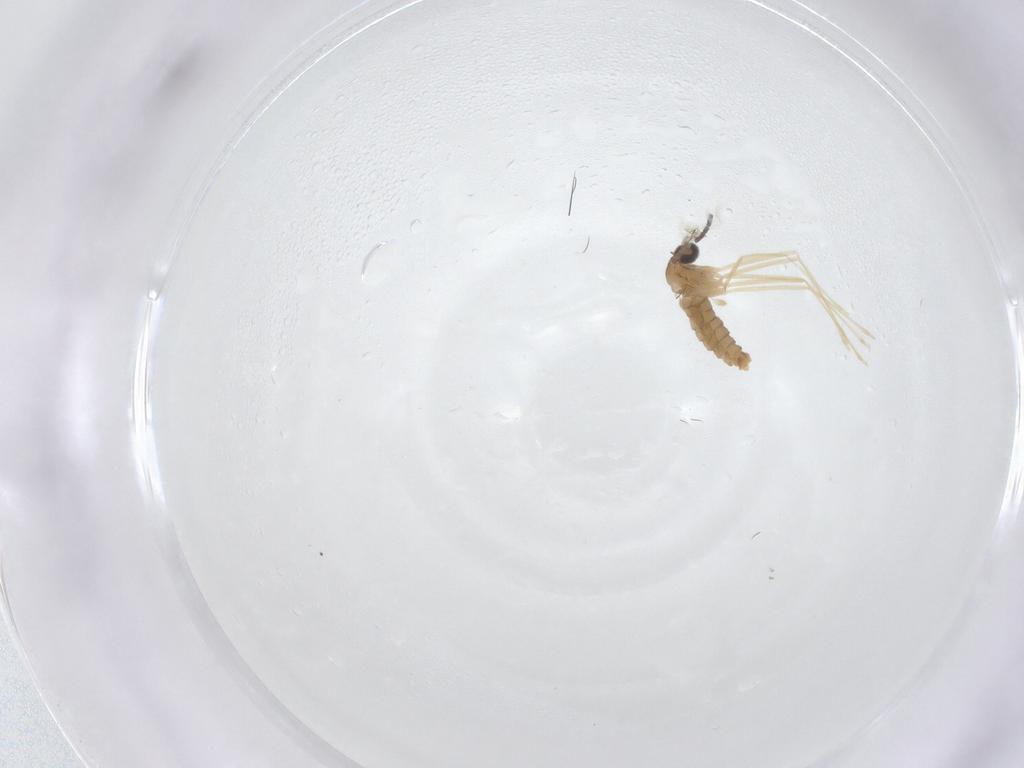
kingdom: Animalia
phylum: Arthropoda
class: Insecta
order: Diptera
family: Sciaridae
